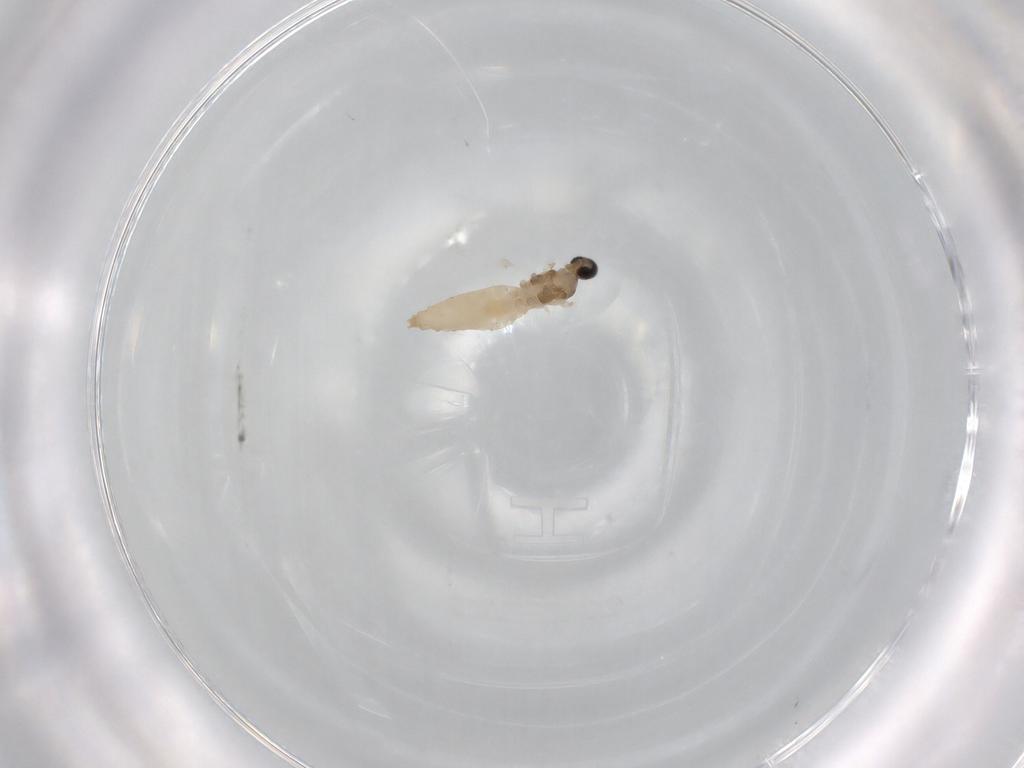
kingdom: Animalia
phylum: Arthropoda
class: Insecta
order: Diptera
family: Cecidomyiidae
